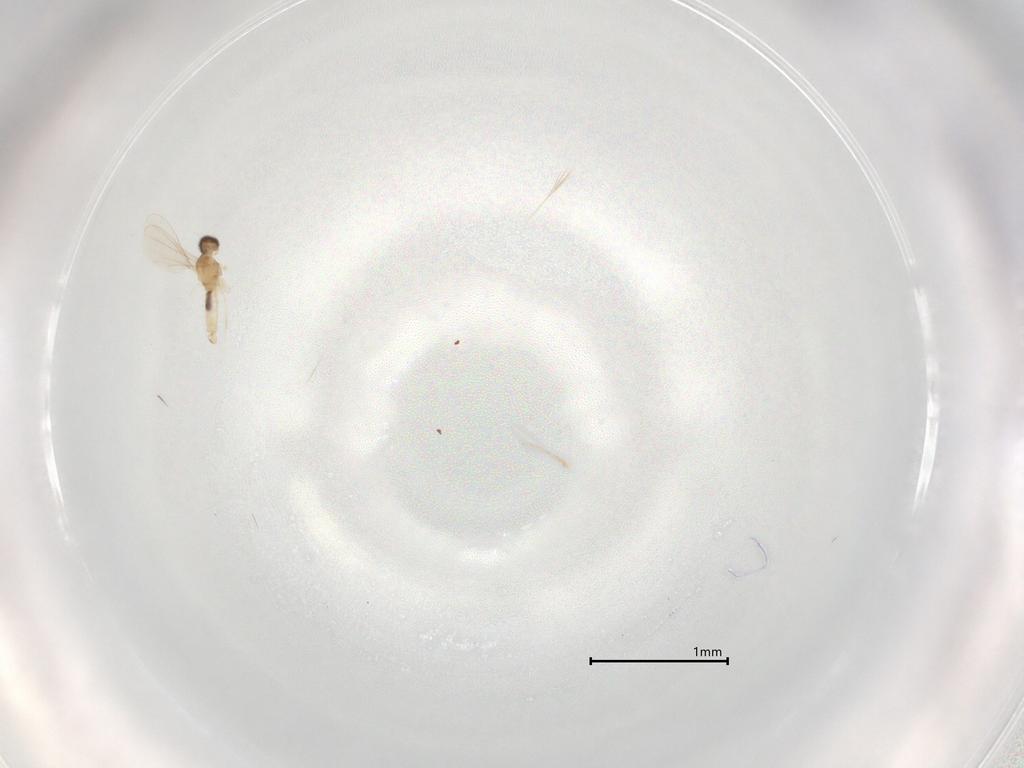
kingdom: Animalia
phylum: Arthropoda
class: Insecta
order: Diptera
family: Cecidomyiidae
